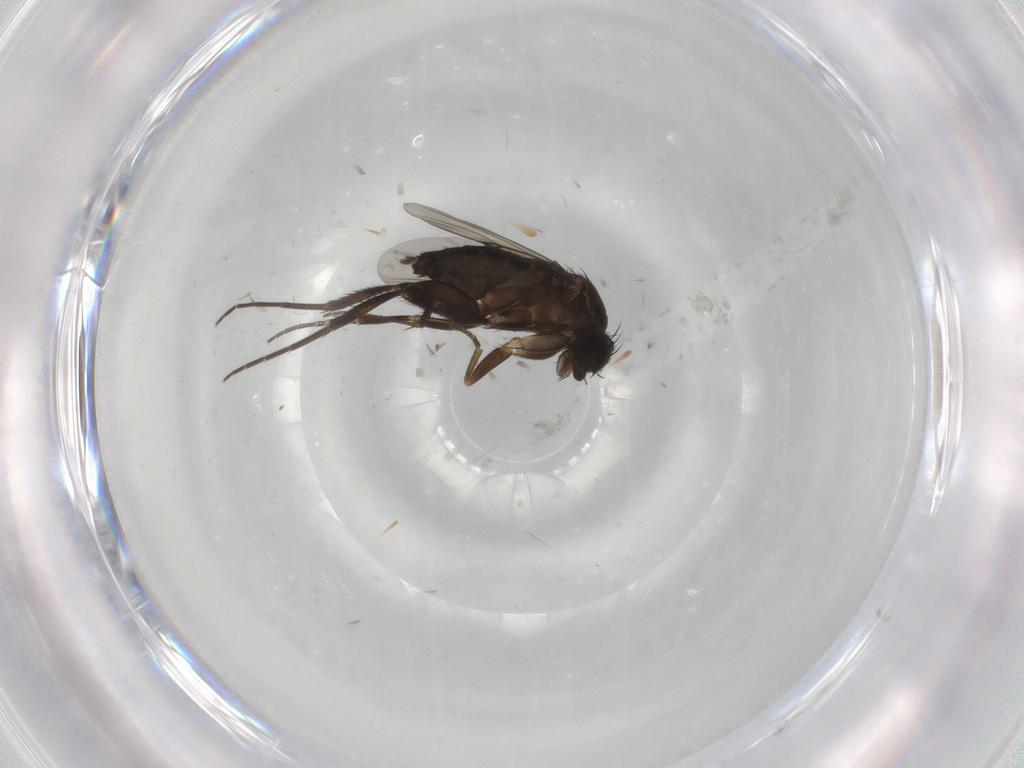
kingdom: Animalia
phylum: Arthropoda
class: Insecta
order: Diptera
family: Phoridae
